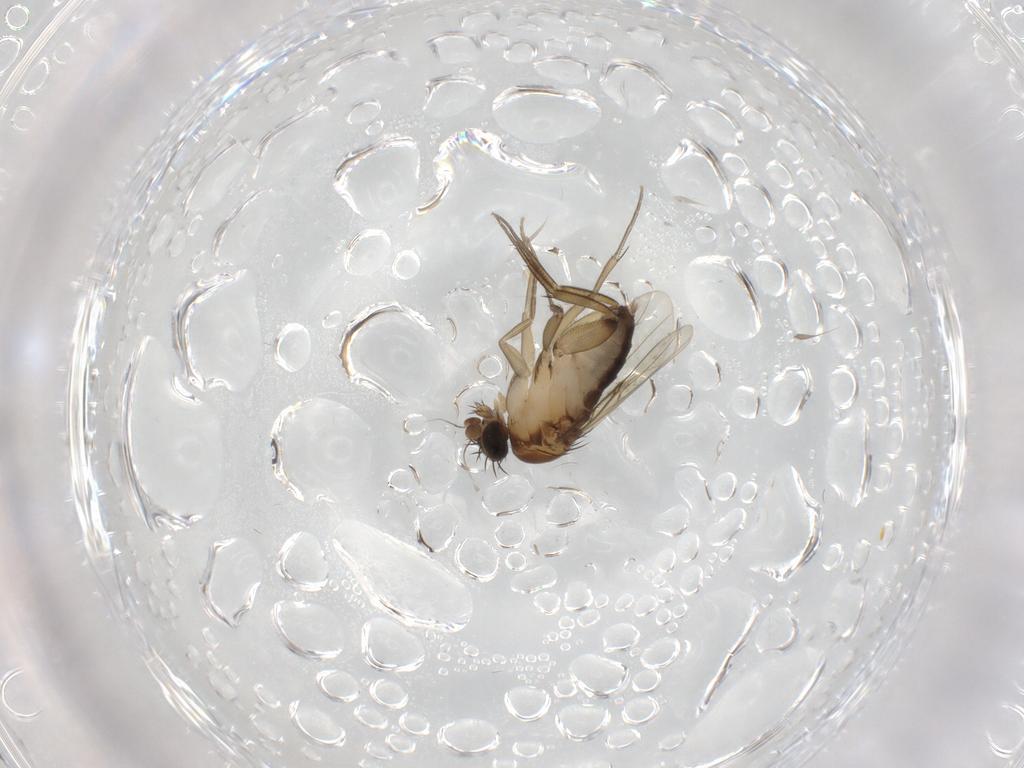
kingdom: Animalia
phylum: Arthropoda
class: Insecta
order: Diptera
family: Phoridae
